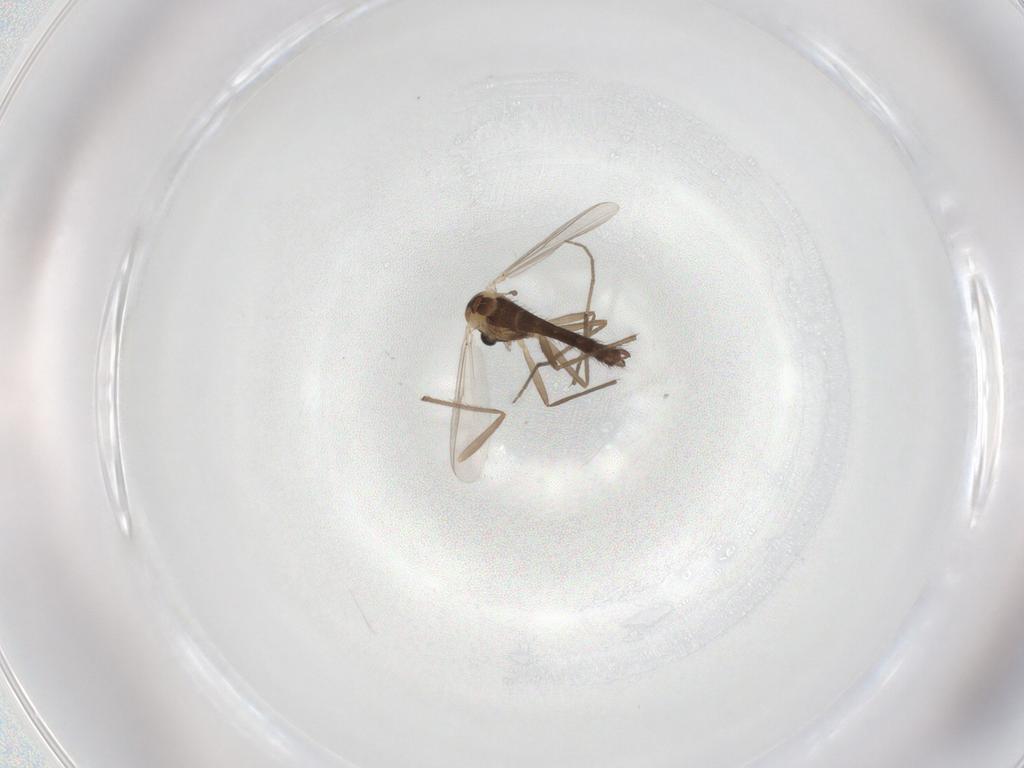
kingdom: Animalia
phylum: Arthropoda
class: Insecta
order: Diptera
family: Chironomidae
